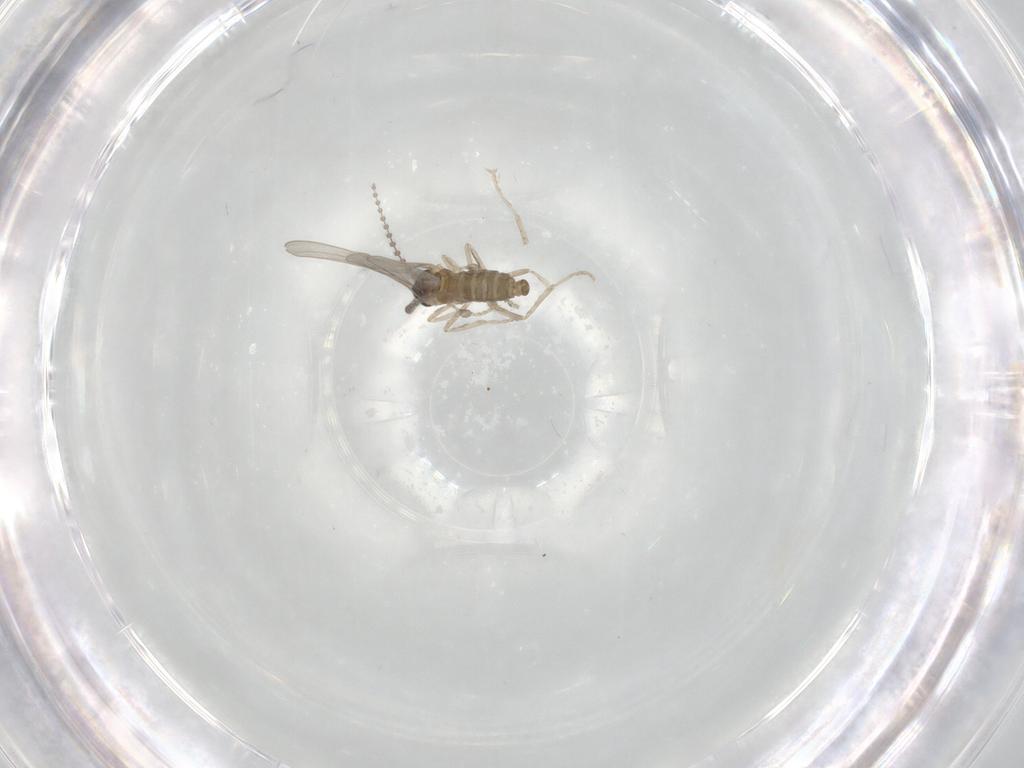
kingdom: Animalia
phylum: Arthropoda
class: Insecta
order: Diptera
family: Cecidomyiidae
